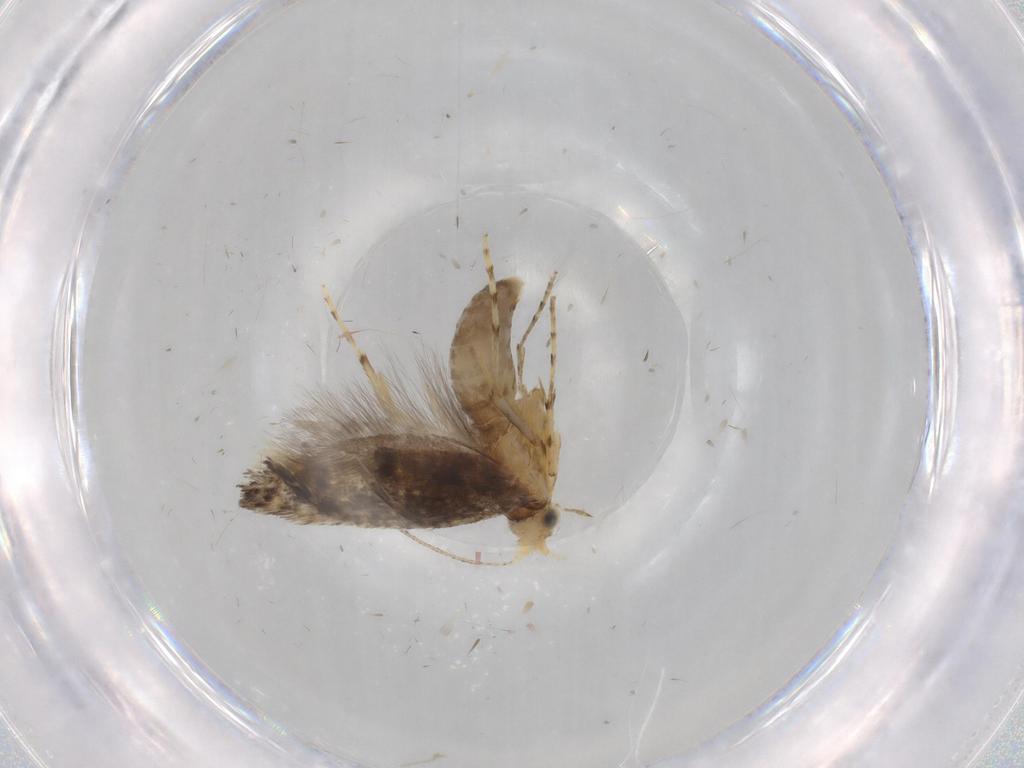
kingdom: Animalia
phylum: Arthropoda
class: Insecta
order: Lepidoptera
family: Argyresthiidae
